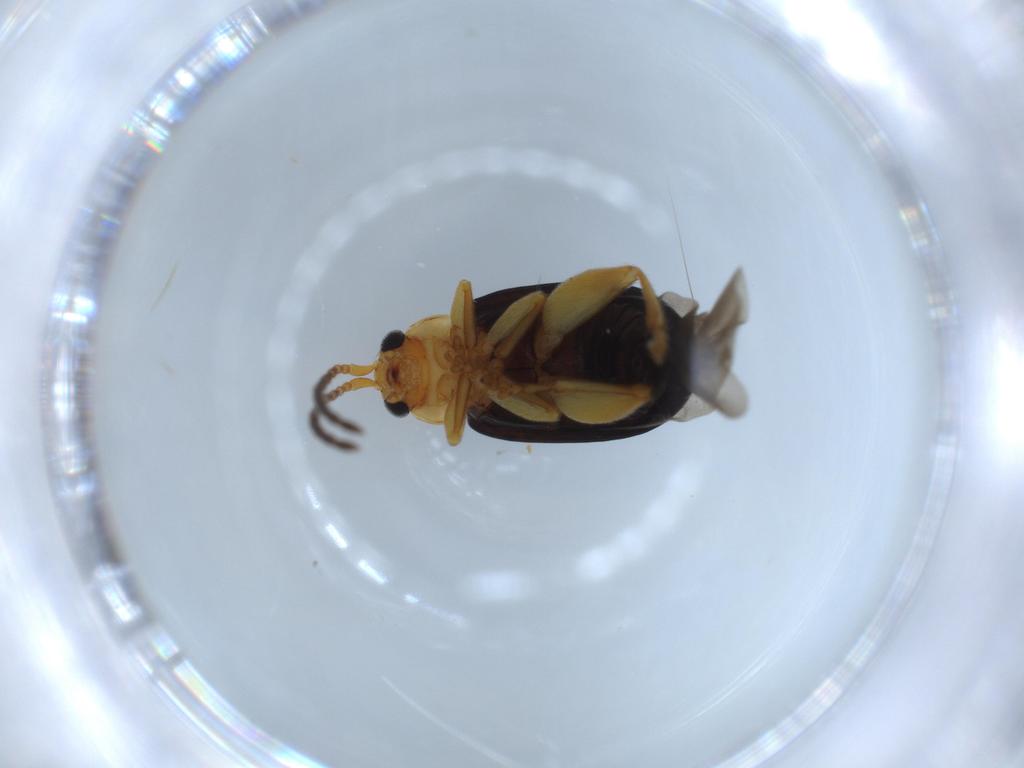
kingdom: Animalia
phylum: Arthropoda
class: Insecta
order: Coleoptera
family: Chrysomelidae
